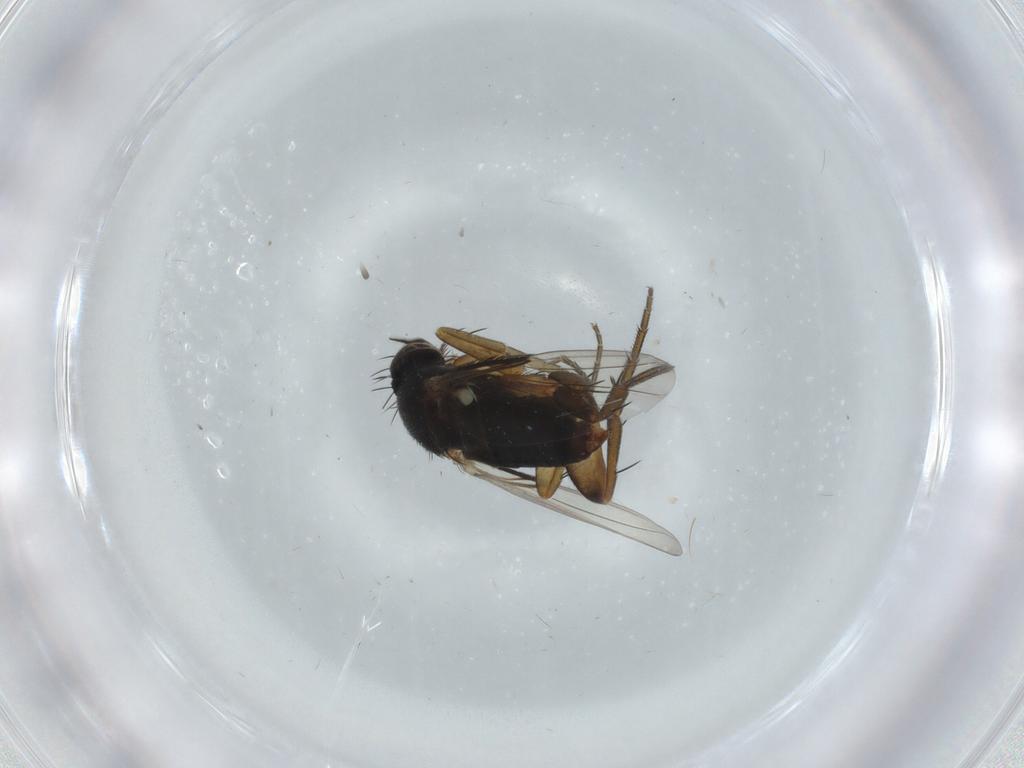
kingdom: Animalia
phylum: Arthropoda
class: Insecta
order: Diptera
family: Phoridae
